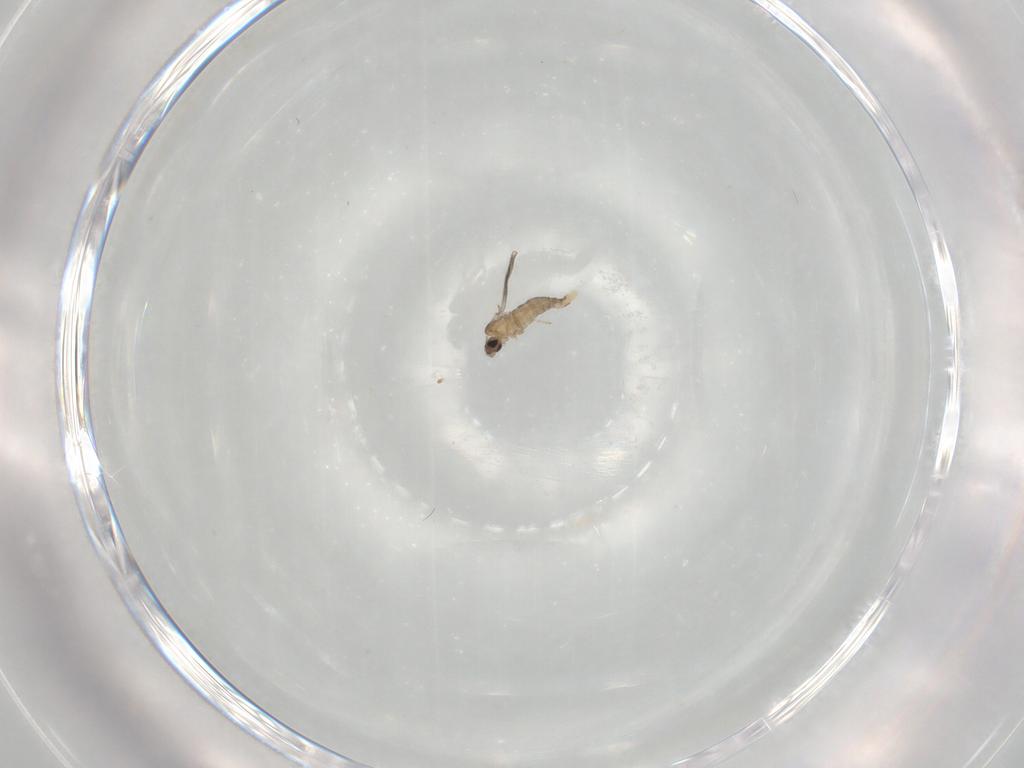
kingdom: Animalia
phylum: Arthropoda
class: Insecta
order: Diptera
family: Cecidomyiidae
